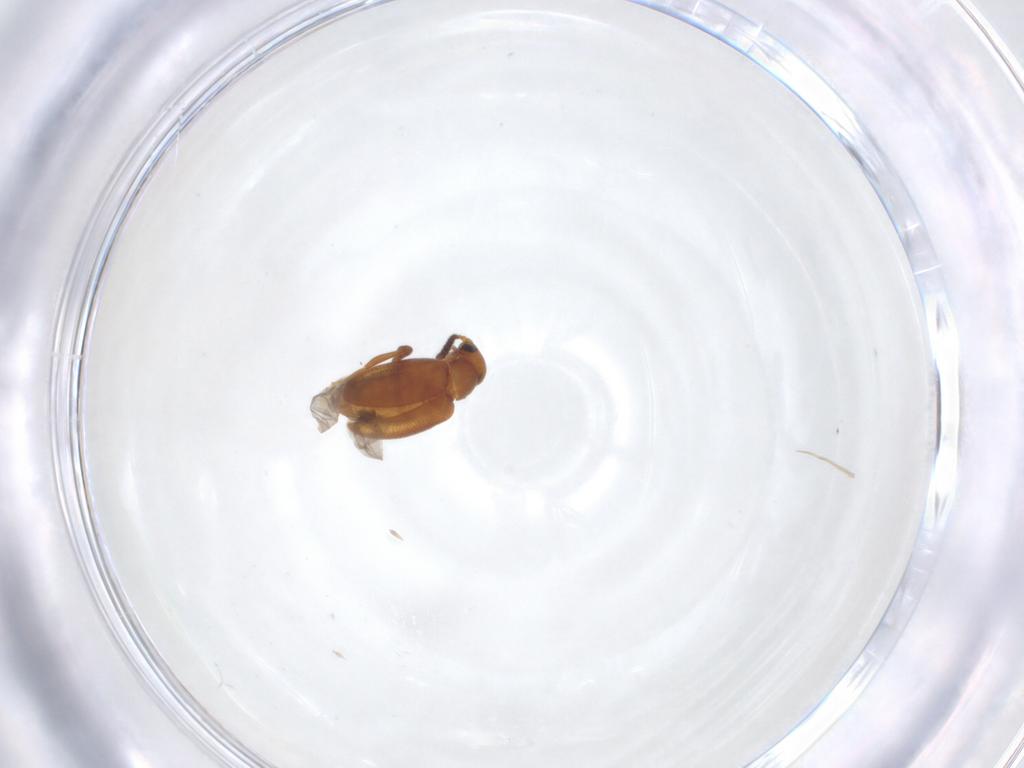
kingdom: Animalia
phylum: Arthropoda
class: Insecta
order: Coleoptera
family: Aderidae
